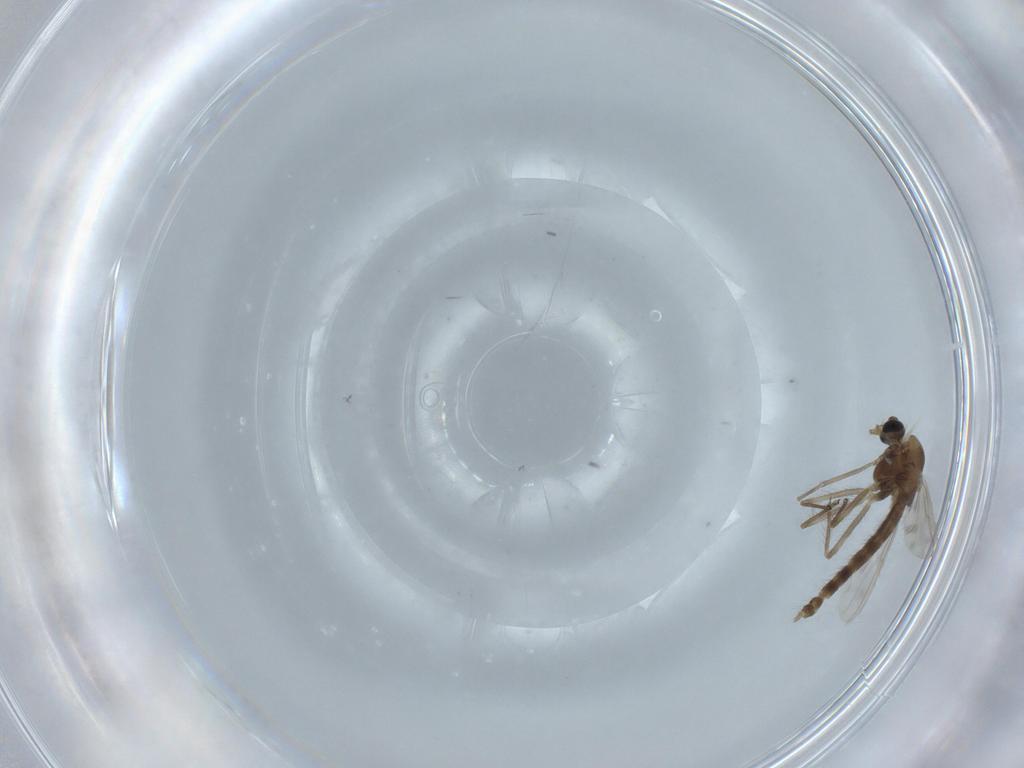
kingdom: Animalia
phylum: Arthropoda
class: Insecta
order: Diptera
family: Chironomidae
